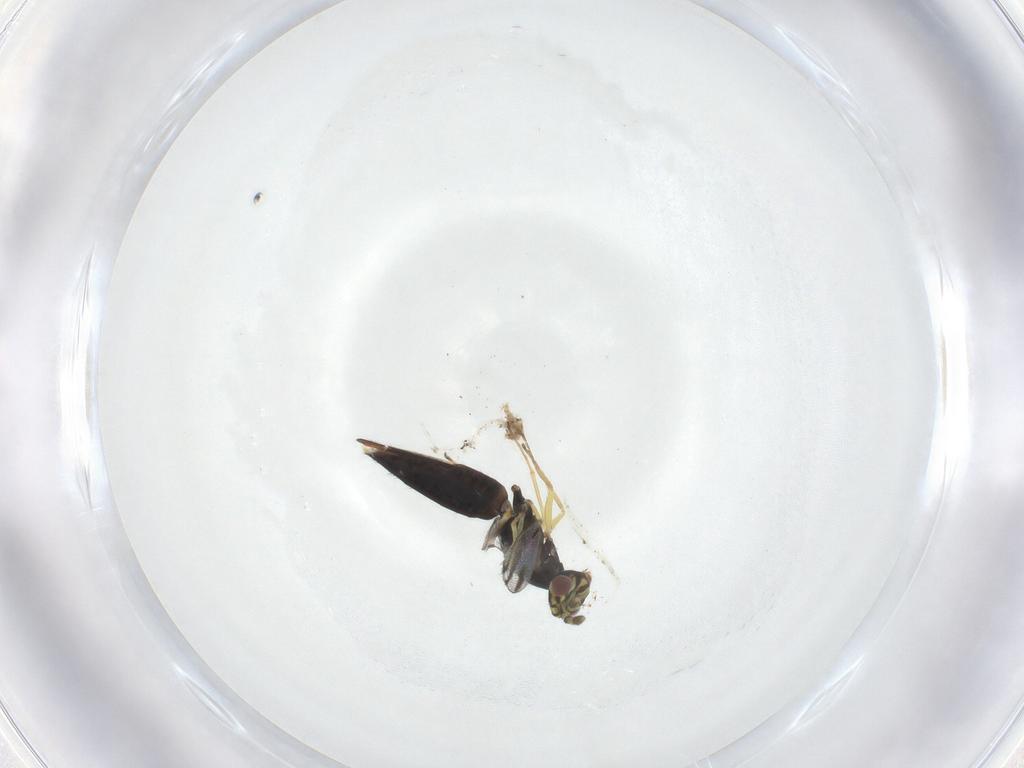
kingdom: Animalia
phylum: Arthropoda
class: Insecta
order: Hymenoptera
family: Eulophidae
